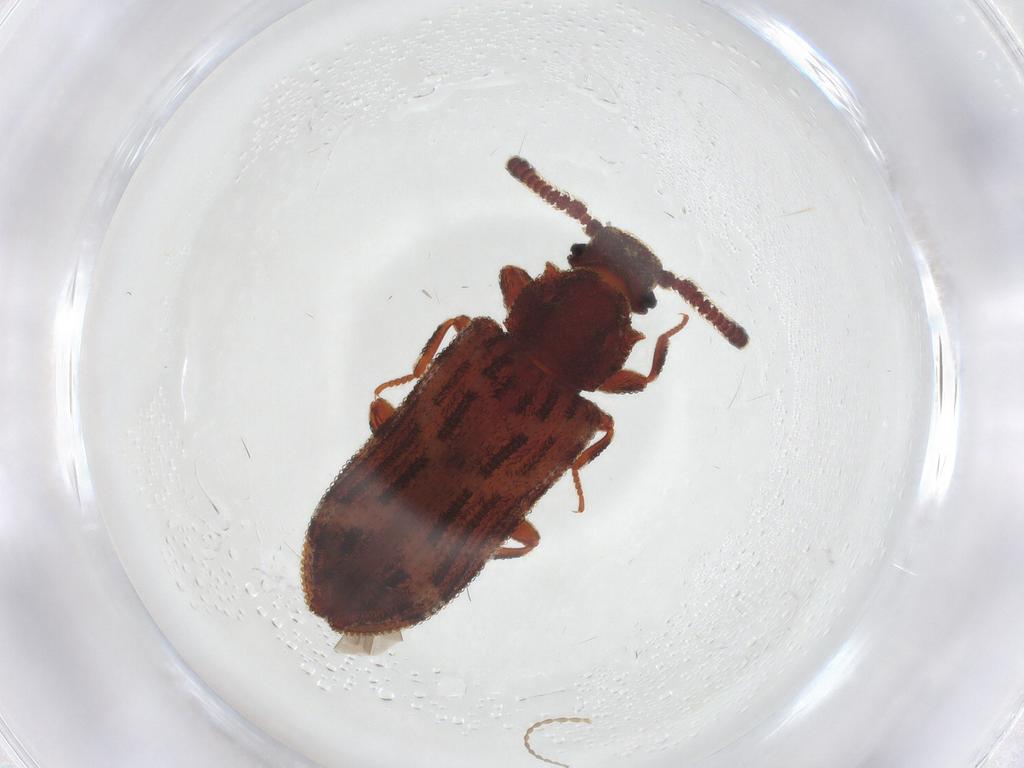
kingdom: Animalia
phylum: Arthropoda
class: Insecta
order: Coleoptera
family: Zopheridae
